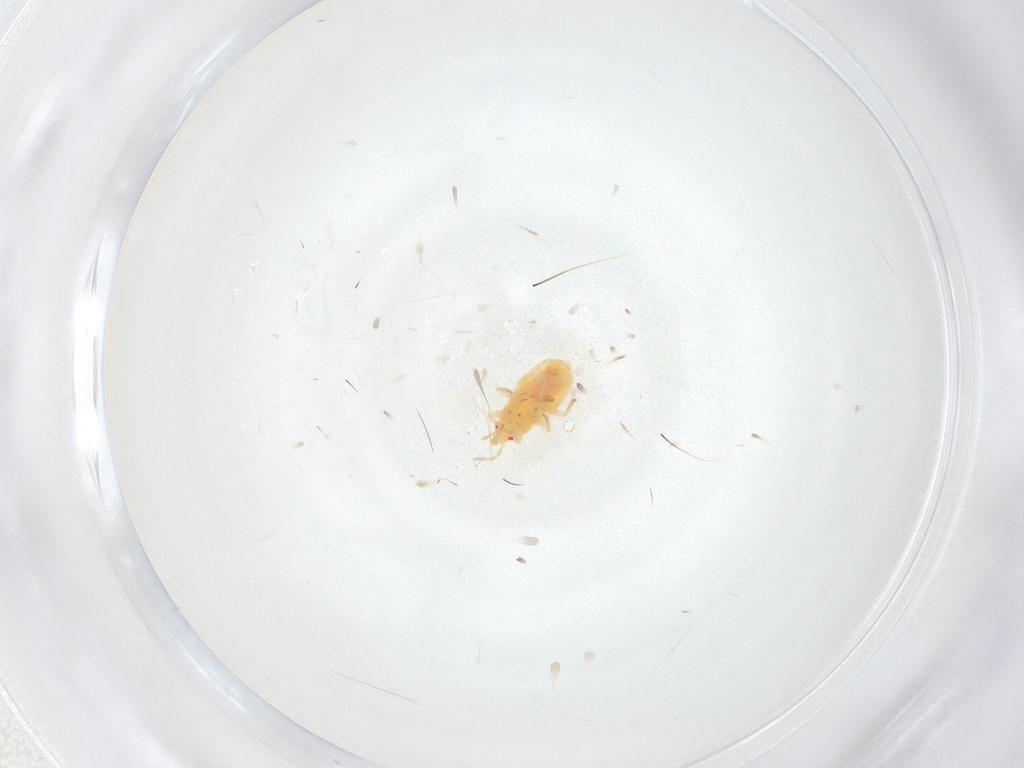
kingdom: Animalia
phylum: Arthropoda
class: Insecta
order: Hemiptera
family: Anthocoridae
